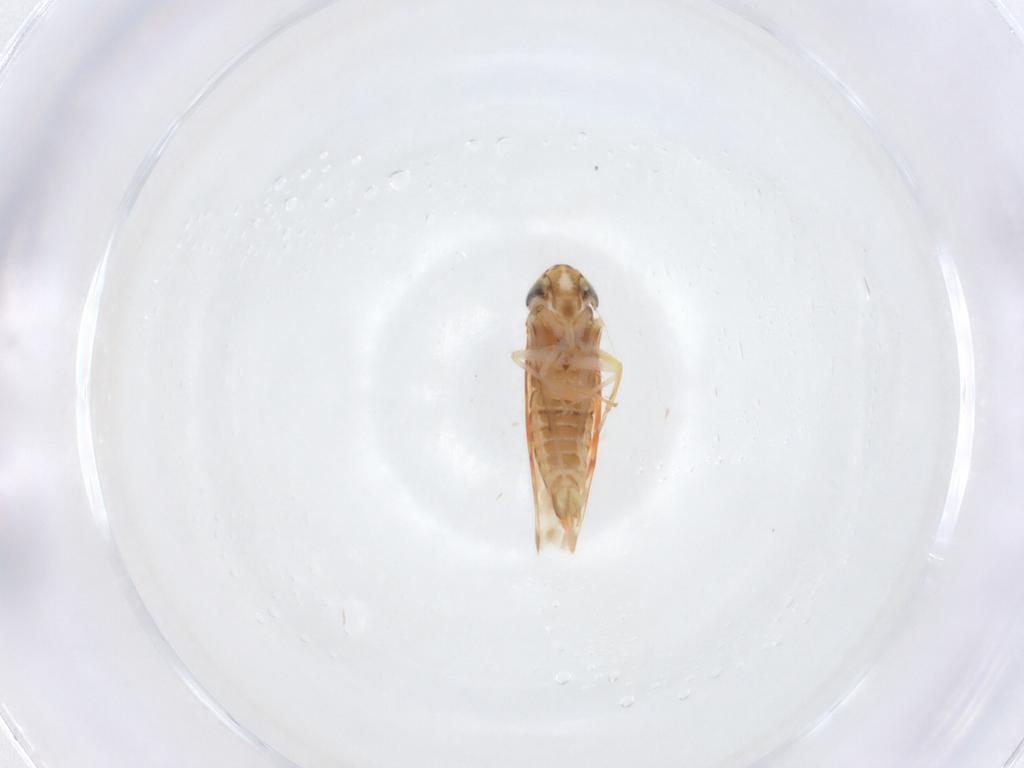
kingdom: Animalia
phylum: Arthropoda
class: Insecta
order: Hemiptera
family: Cicadellidae
